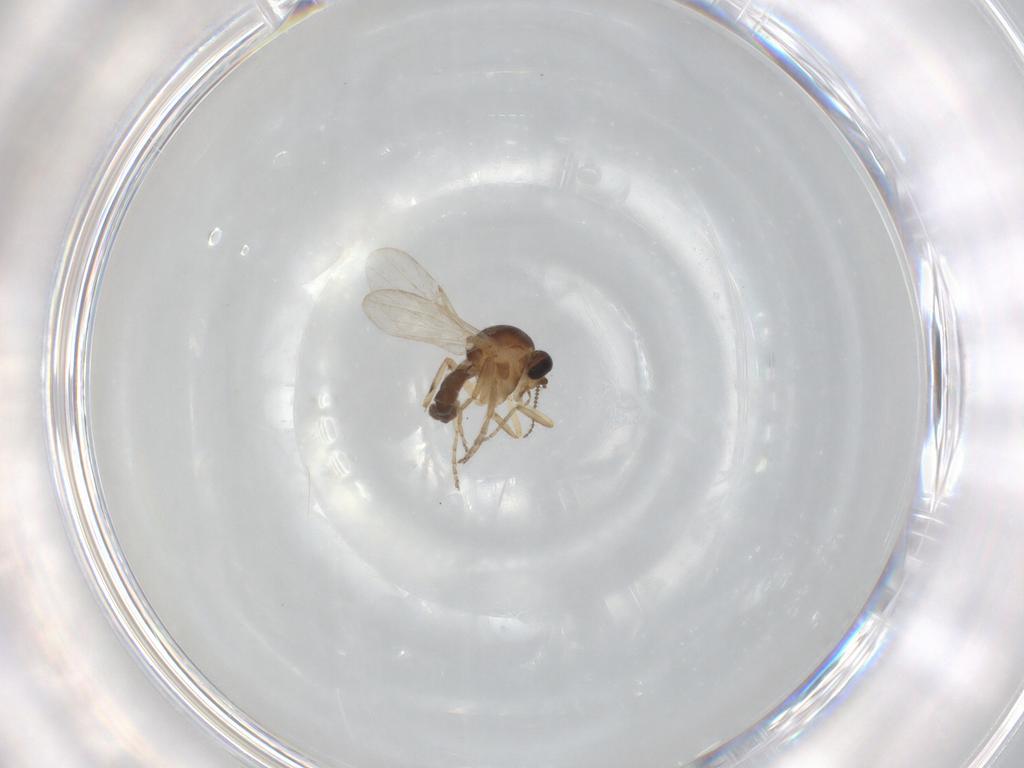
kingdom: Animalia
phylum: Arthropoda
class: Insecta
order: Diptera
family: Ceratopogonidae
